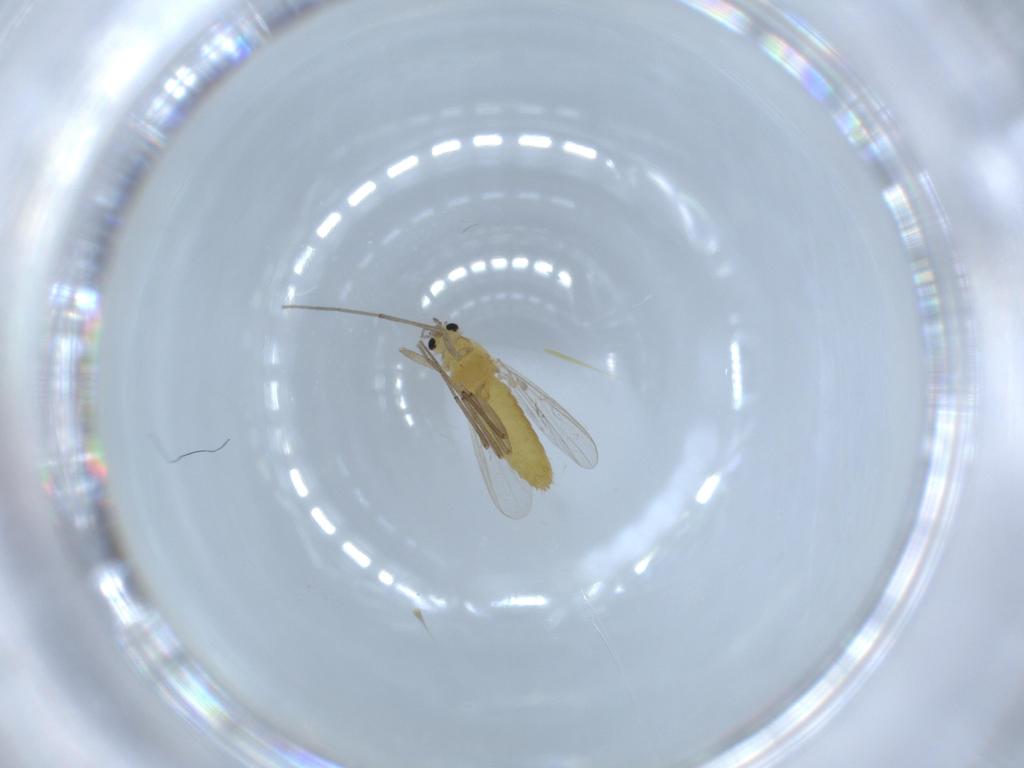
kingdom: Animalia
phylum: Arthropoda
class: Insecta
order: Diptera
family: Chironomidae
